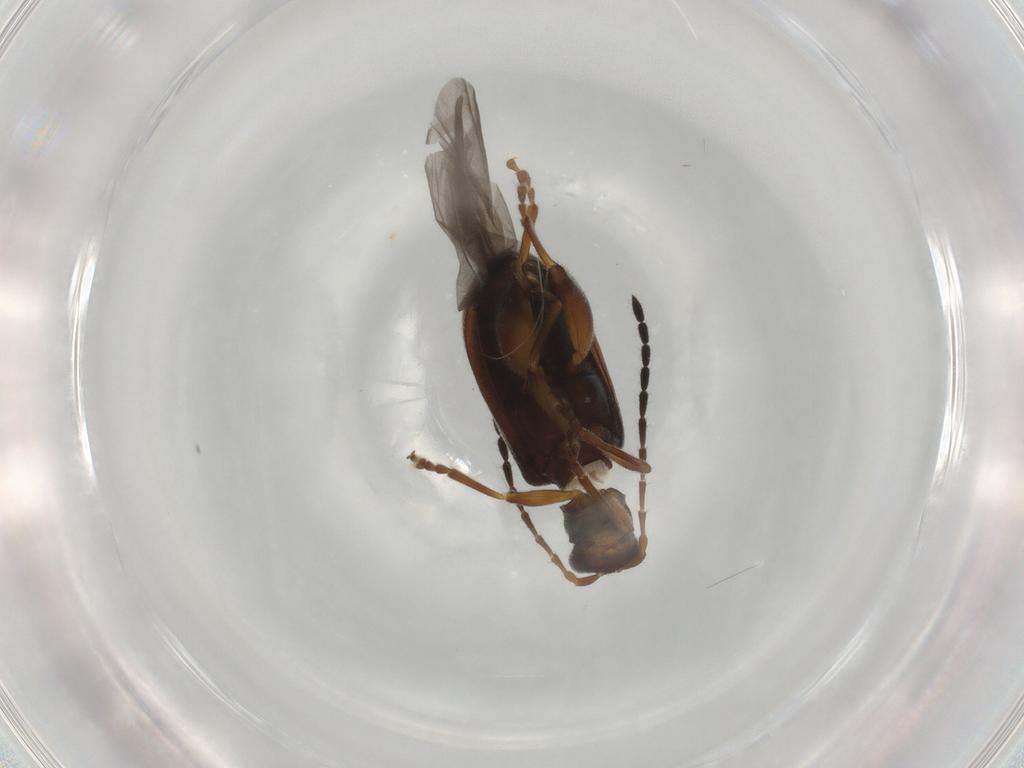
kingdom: Animalia
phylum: Arthropoda
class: Insecta
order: Coleoptera
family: Chrysomelidae
